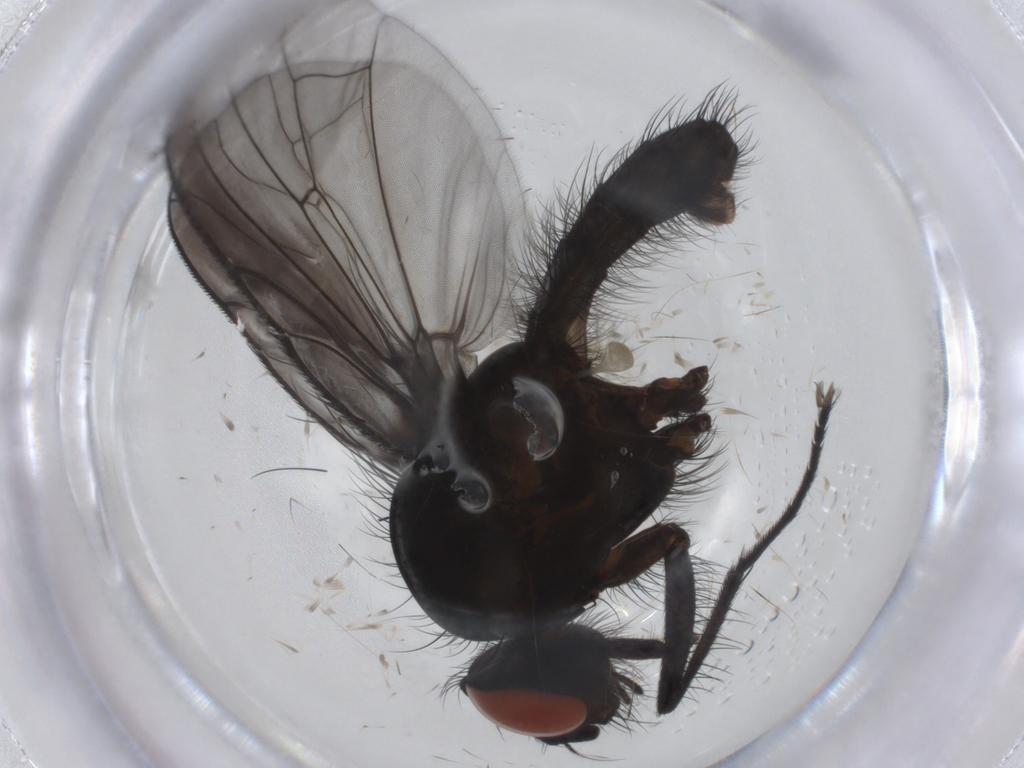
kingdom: Animalia
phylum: Arthropoda
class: Insecta
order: Diptera
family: Anthomyiidae
